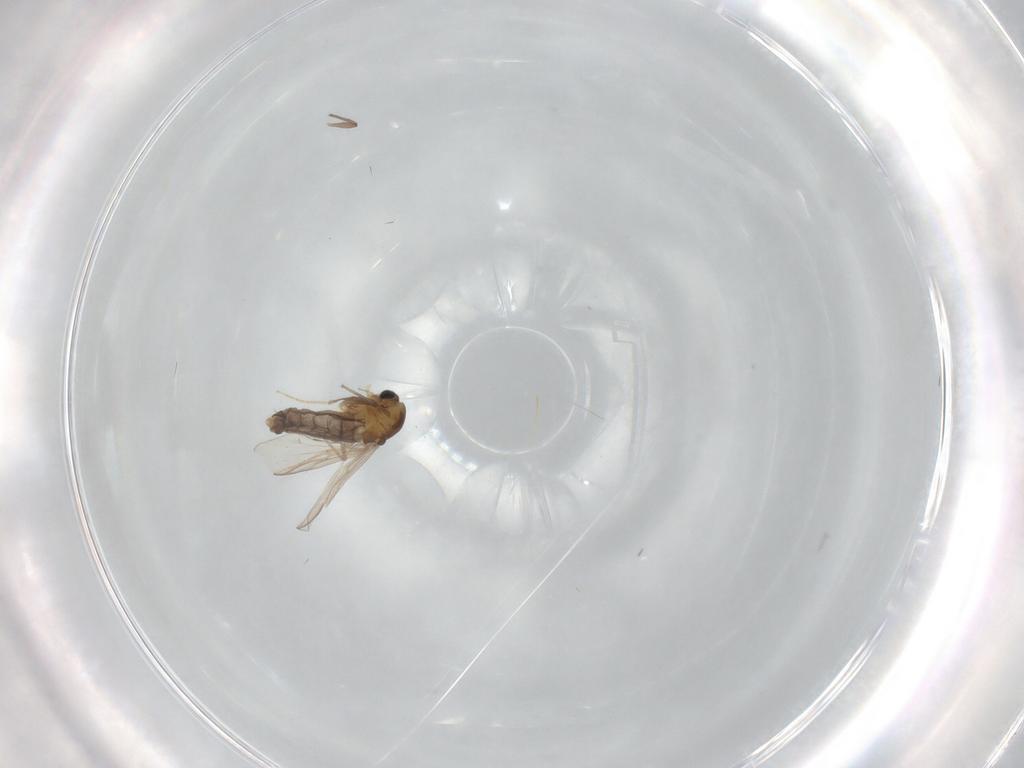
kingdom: Animalia
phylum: Arthropoda
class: Insecta
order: Diptera
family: Chironomidae
